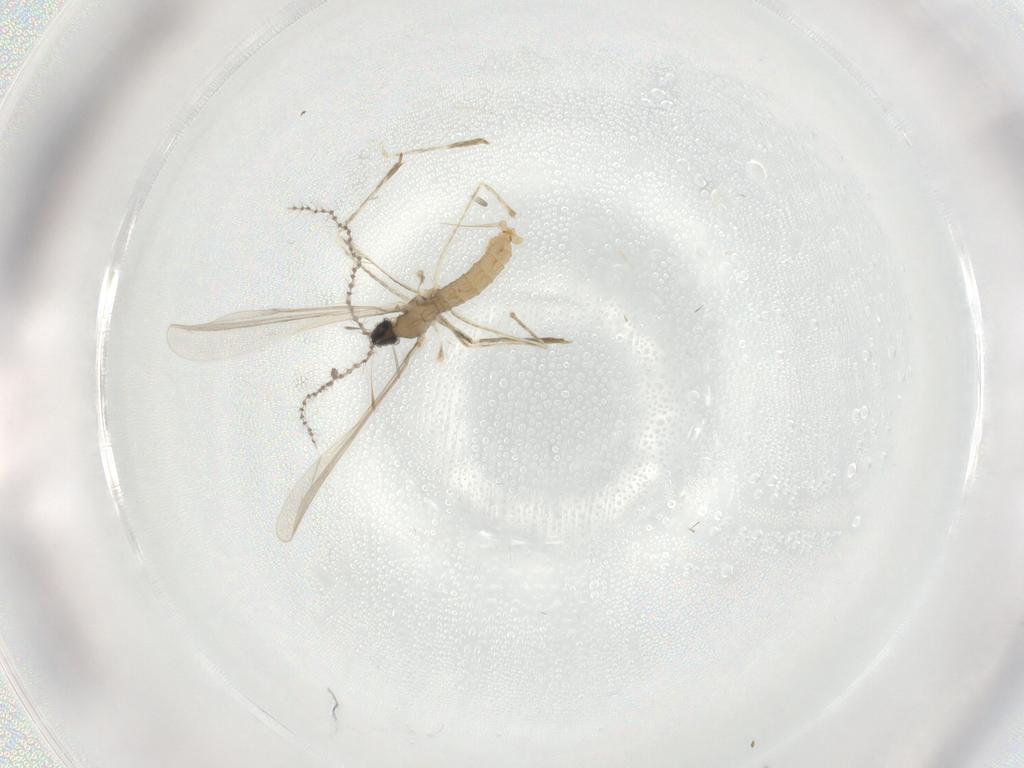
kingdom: Animalia
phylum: Arthropoda
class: Insecta
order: Diptera
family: Cecidomyiidae
